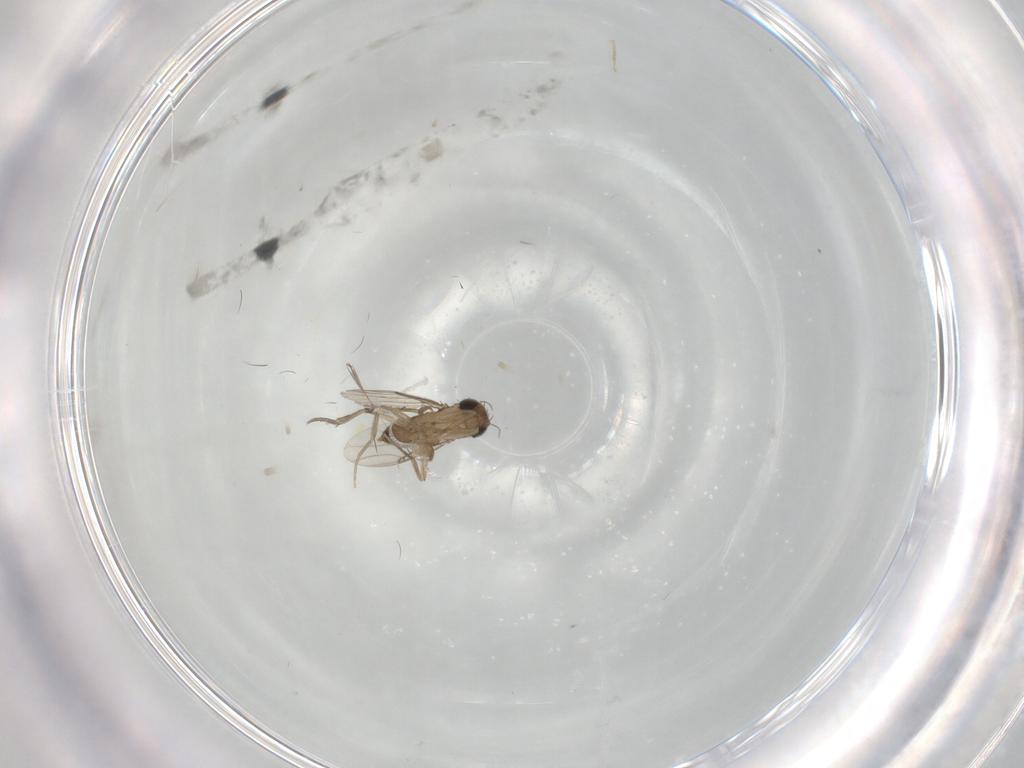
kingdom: Animalia
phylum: Arthropoda
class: Insecta
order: Diptera
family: Phoridae
